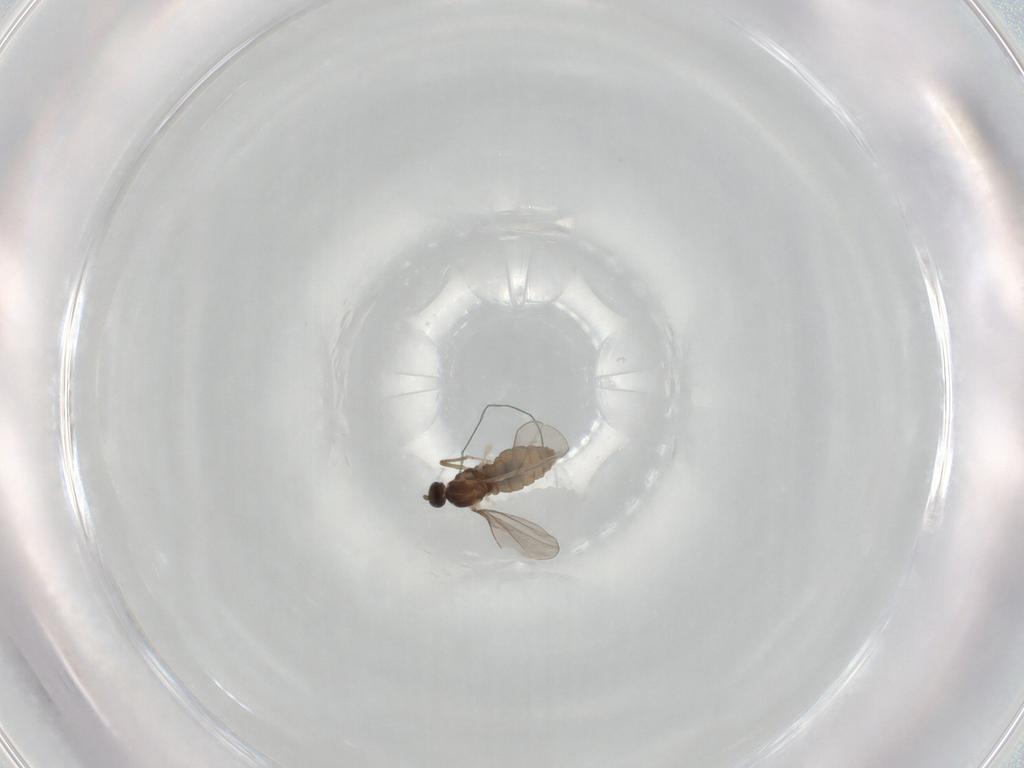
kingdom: Animalia
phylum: Arthropoda
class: Insecta
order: Diptera
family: Cecidomyiidae
